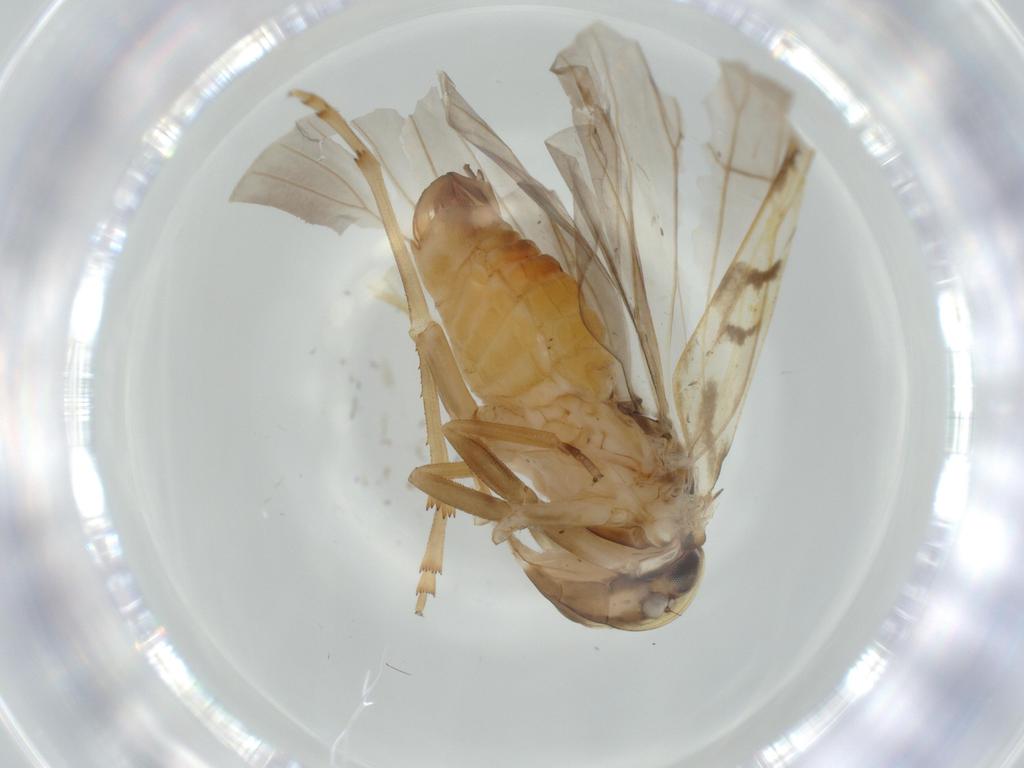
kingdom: Animalia
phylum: Arthropoda
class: Insecta
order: Hemiptera
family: Cixiidae
